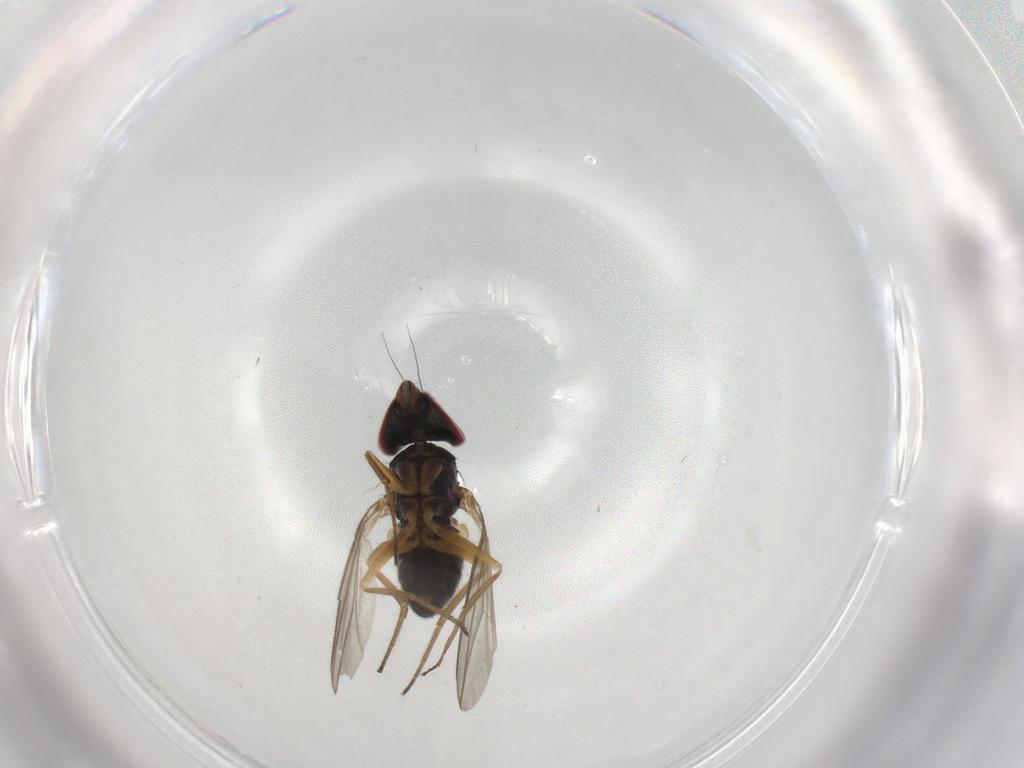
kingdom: Animalia
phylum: Arthropoda
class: Insecta
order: Diptera
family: Dolichopodidae
